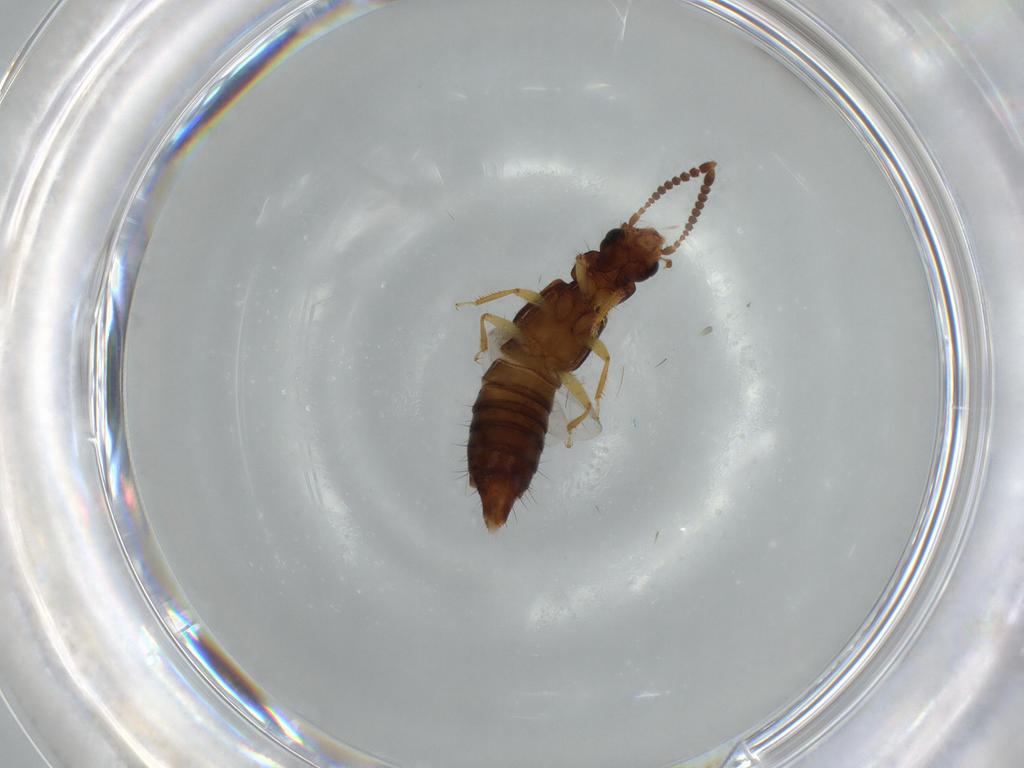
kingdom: Animalia
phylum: Arthropoda
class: Insecta
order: Coleoptera
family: Staphylinidae
